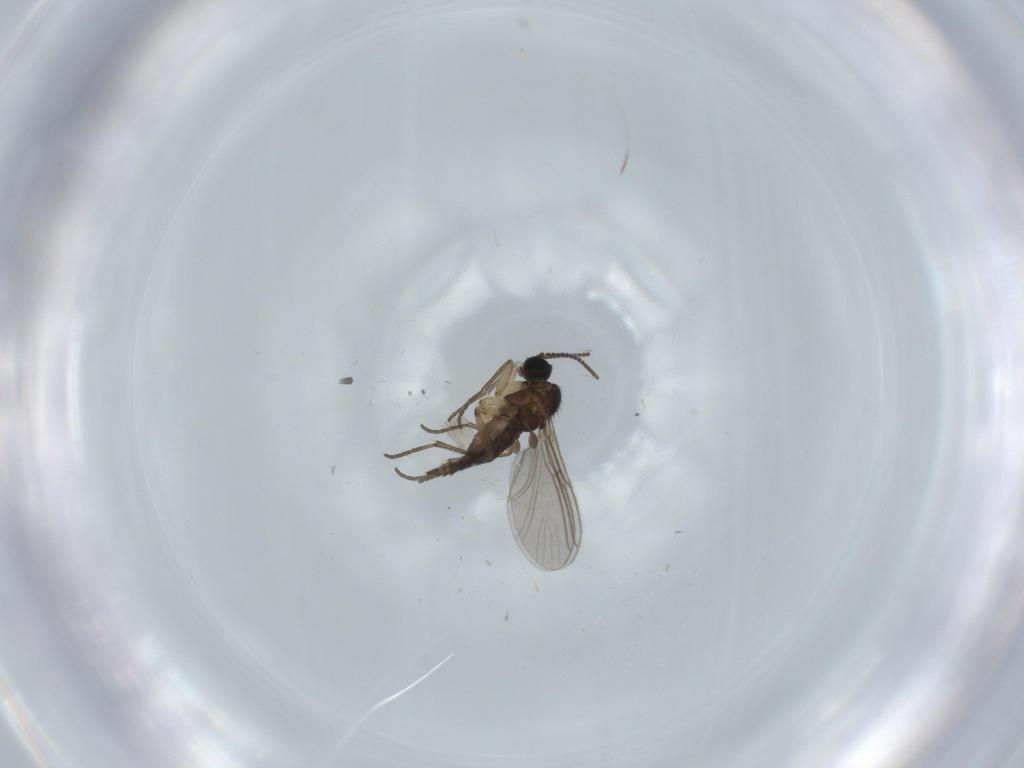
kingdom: Animalia
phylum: Arthropoda
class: Insecta
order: Diptera
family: Sciaridae
